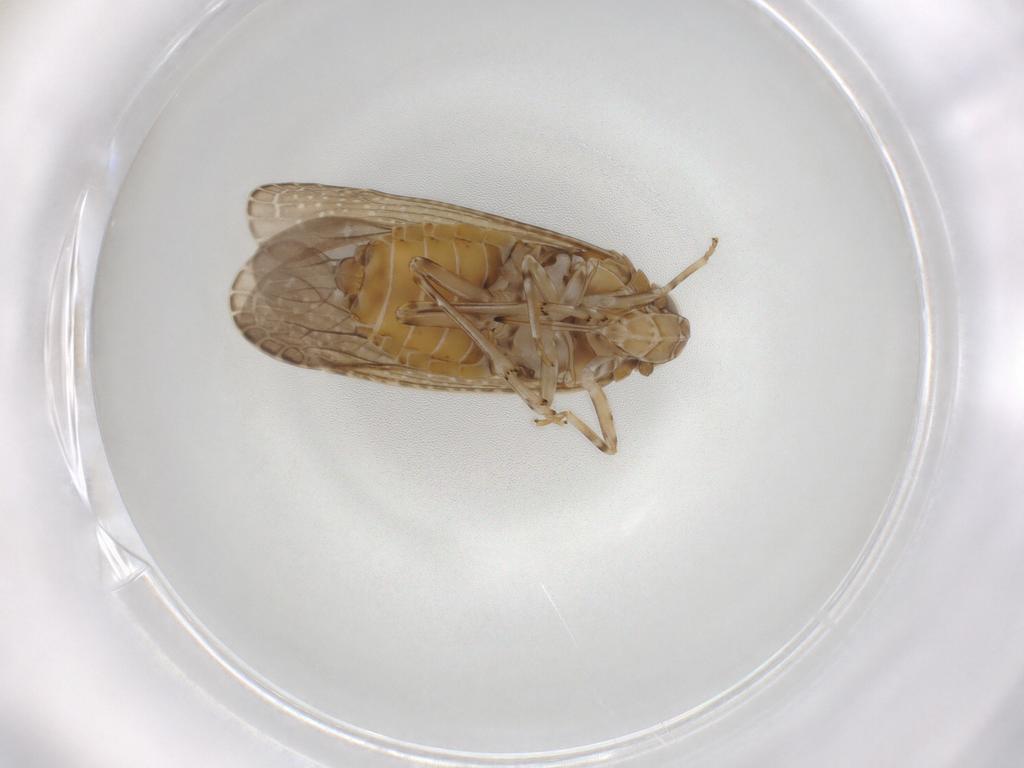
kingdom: Animalia
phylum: Arthropoda
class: Insecta
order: Hemiptera
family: Achilidae
